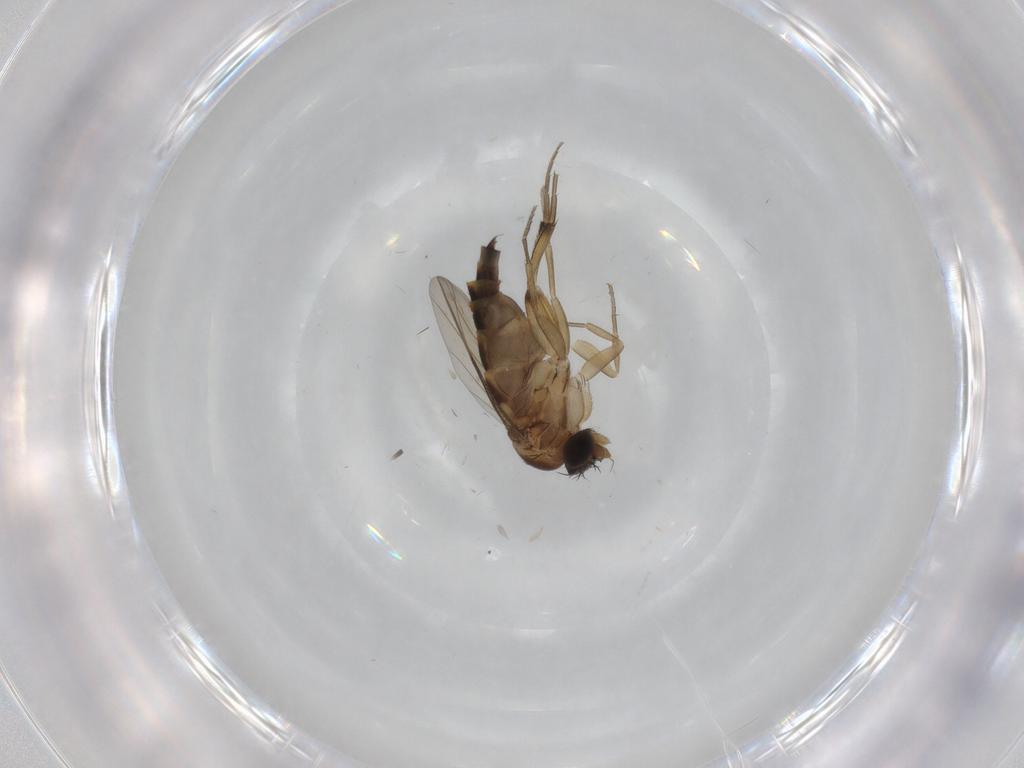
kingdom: Animalia
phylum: Arthropoda
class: Insecta
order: Diptera
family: Phoridae
